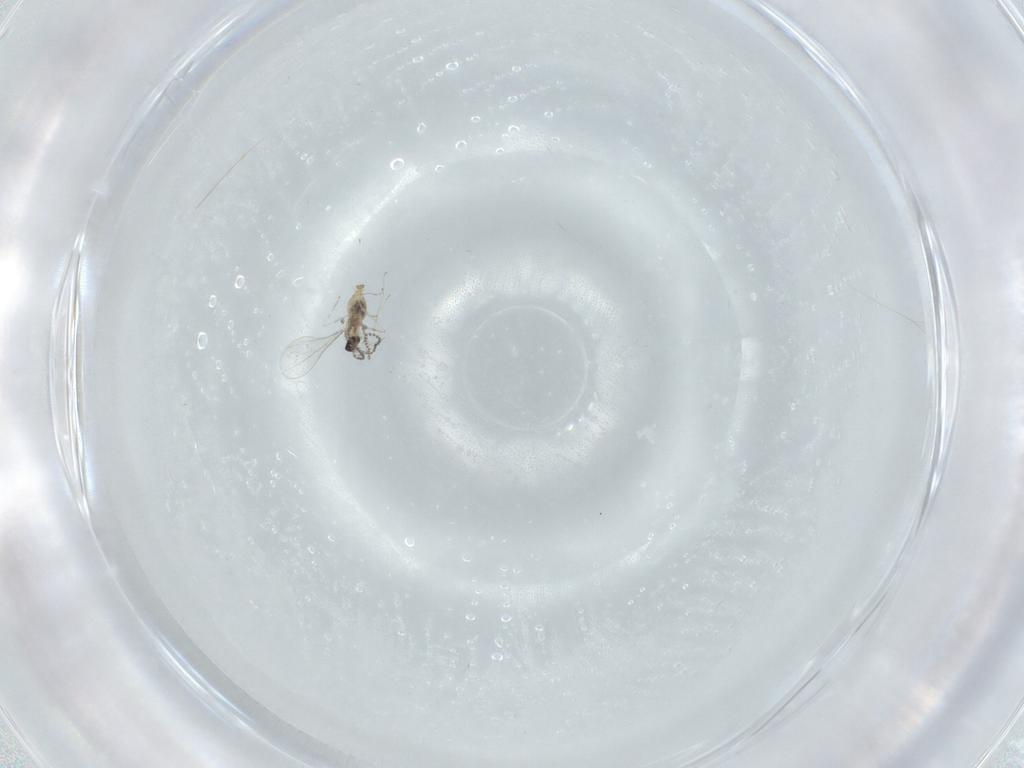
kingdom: Animalia
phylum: Arthropoda
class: Insecta
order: Diptera
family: Cecidomyiidae
